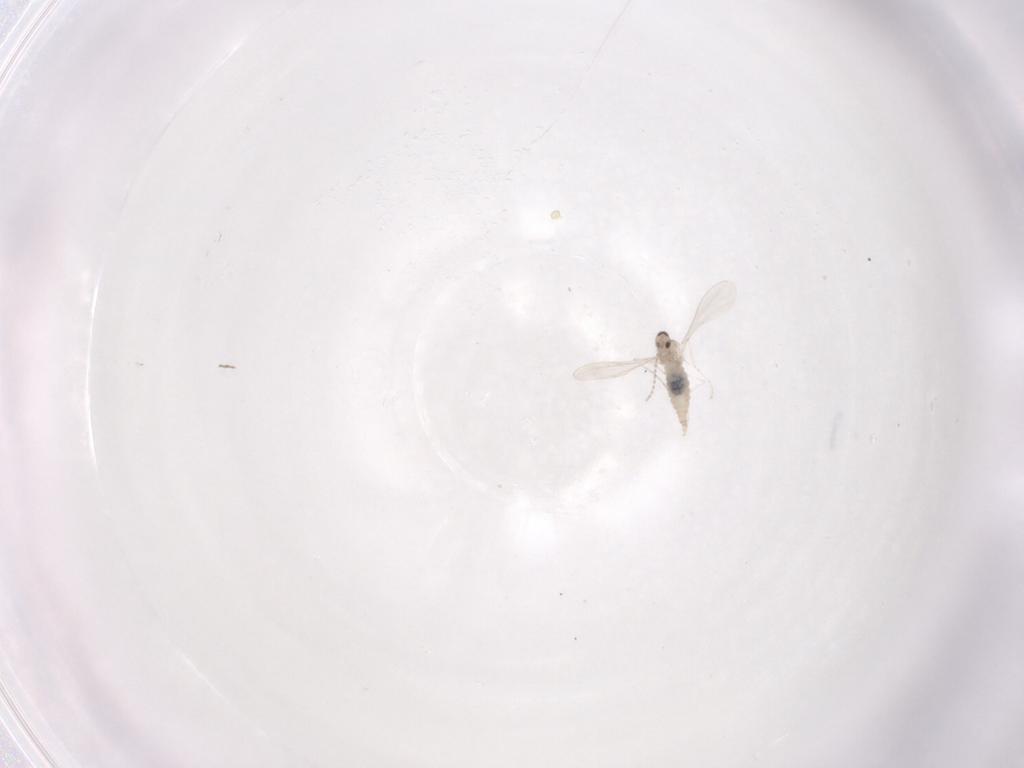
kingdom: Animalia
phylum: Arthropoda
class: Insecta
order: Diptera
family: Cecidomyiidae
